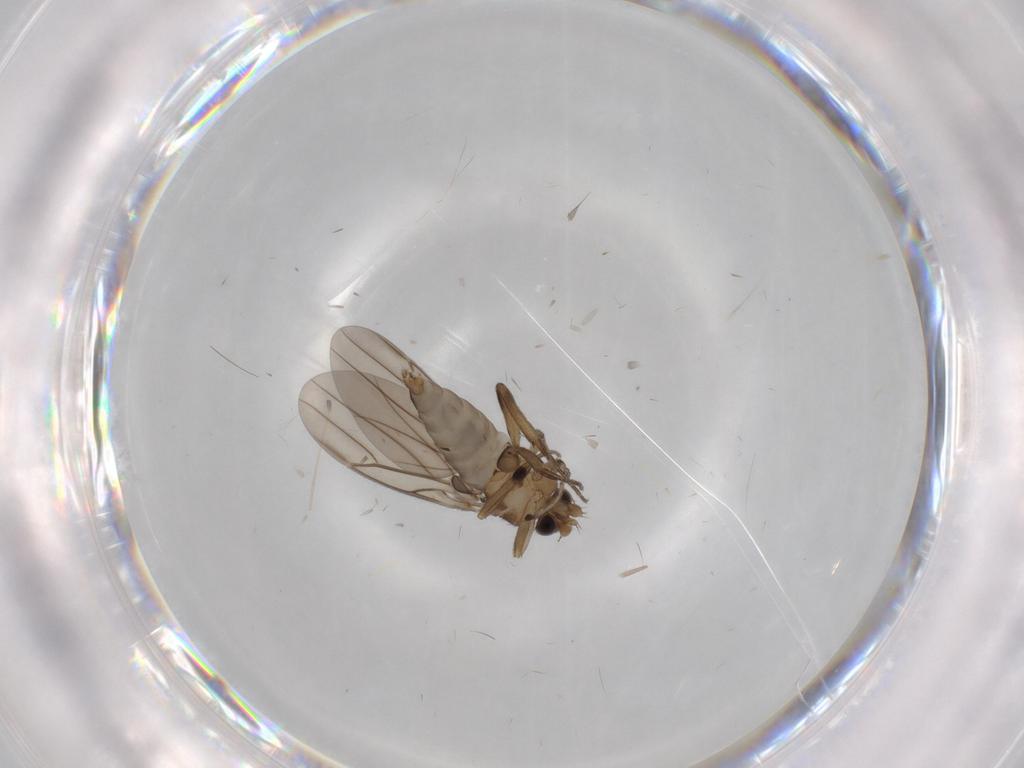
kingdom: Animalia
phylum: Arthropoda
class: Insecta
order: Diptera
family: Phoridae
